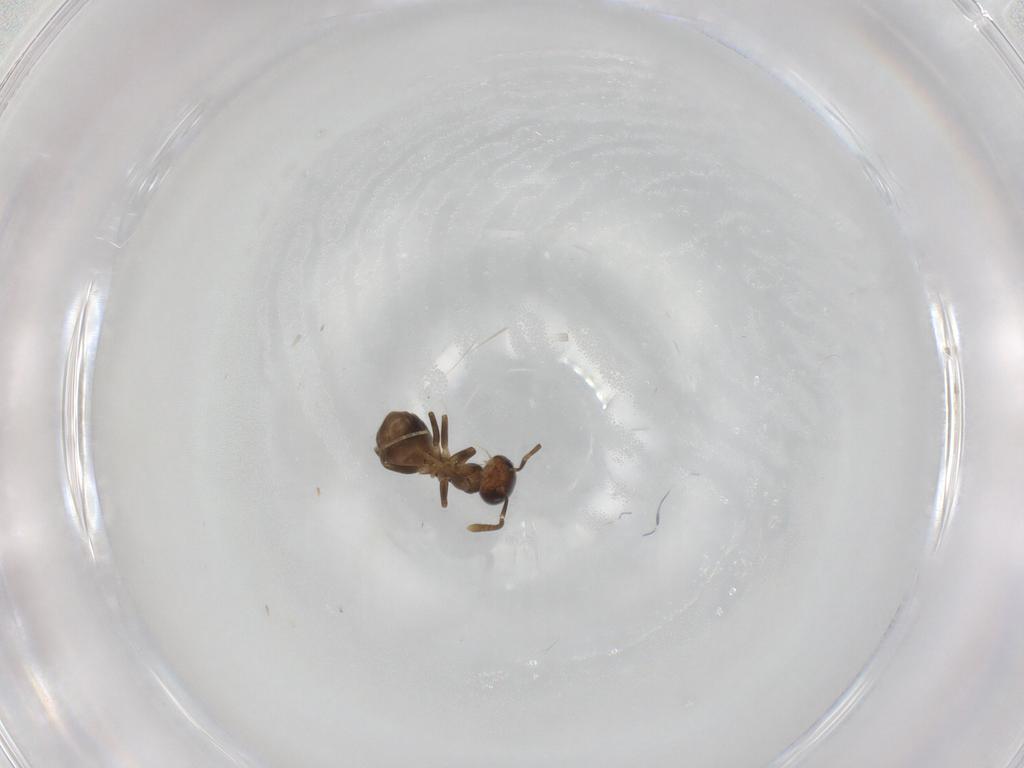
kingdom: Animalia
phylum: Arthropoda
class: Insecta
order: Hymenoptera
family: Formicidae
